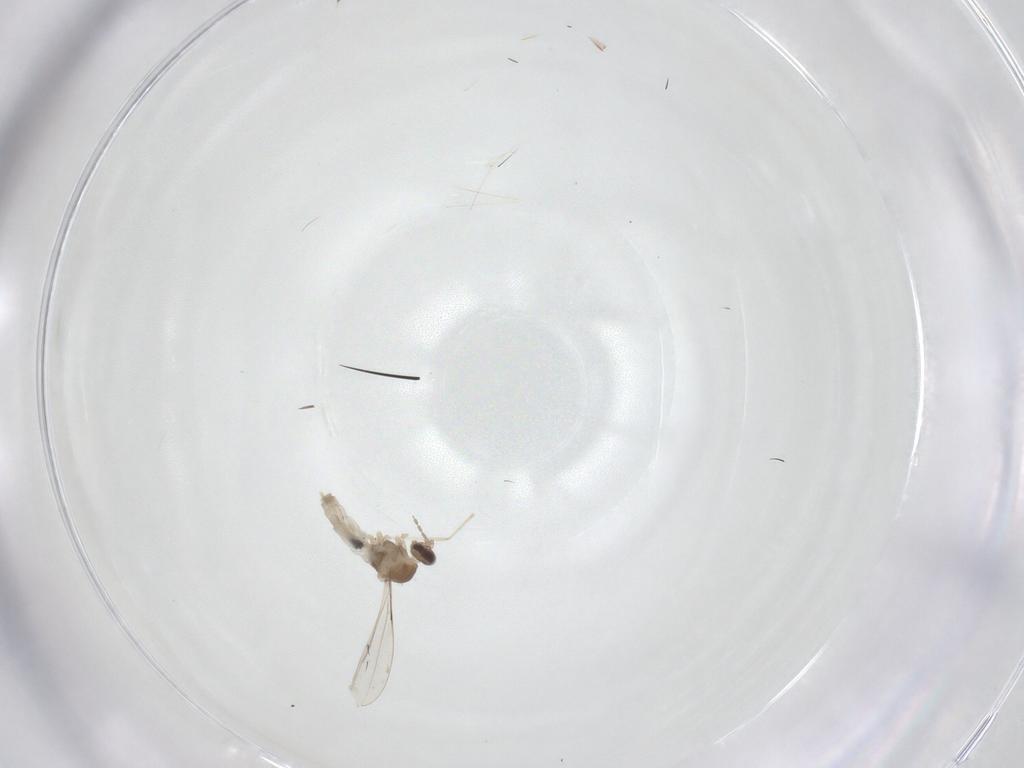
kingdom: Animalia
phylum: Arthropoda
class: Insecta
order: Diptera
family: Cecidomyiidae
